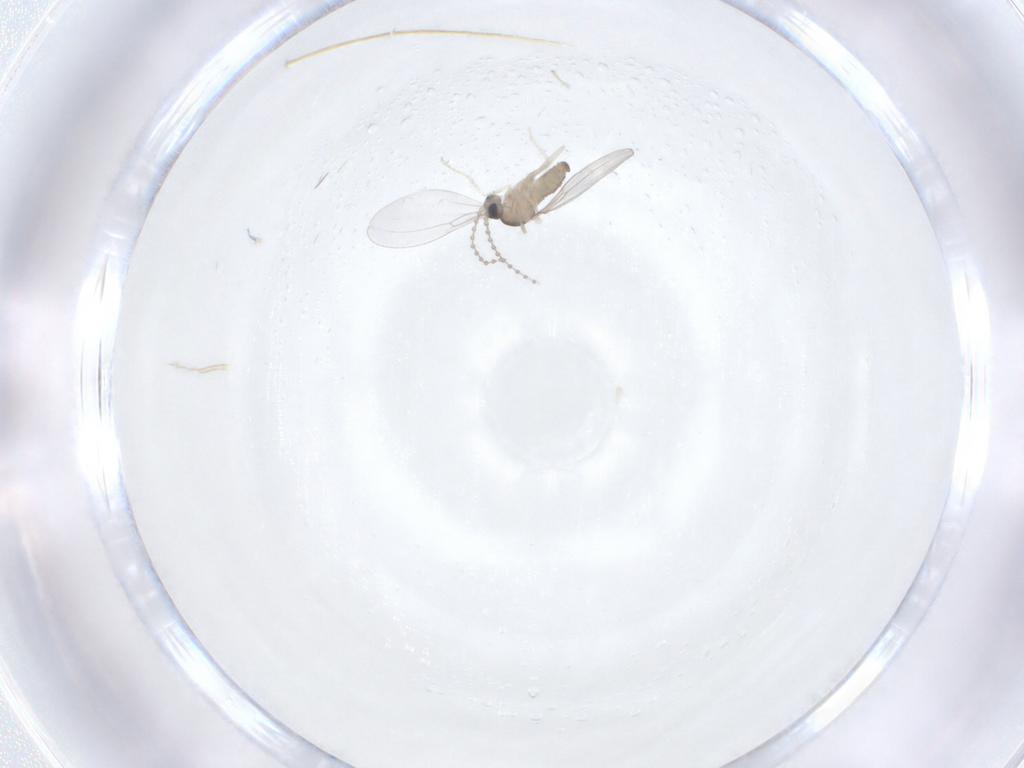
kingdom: Animalia
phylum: Arthropoda
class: Insecta
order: Diptera
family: Cecidomyiidae
